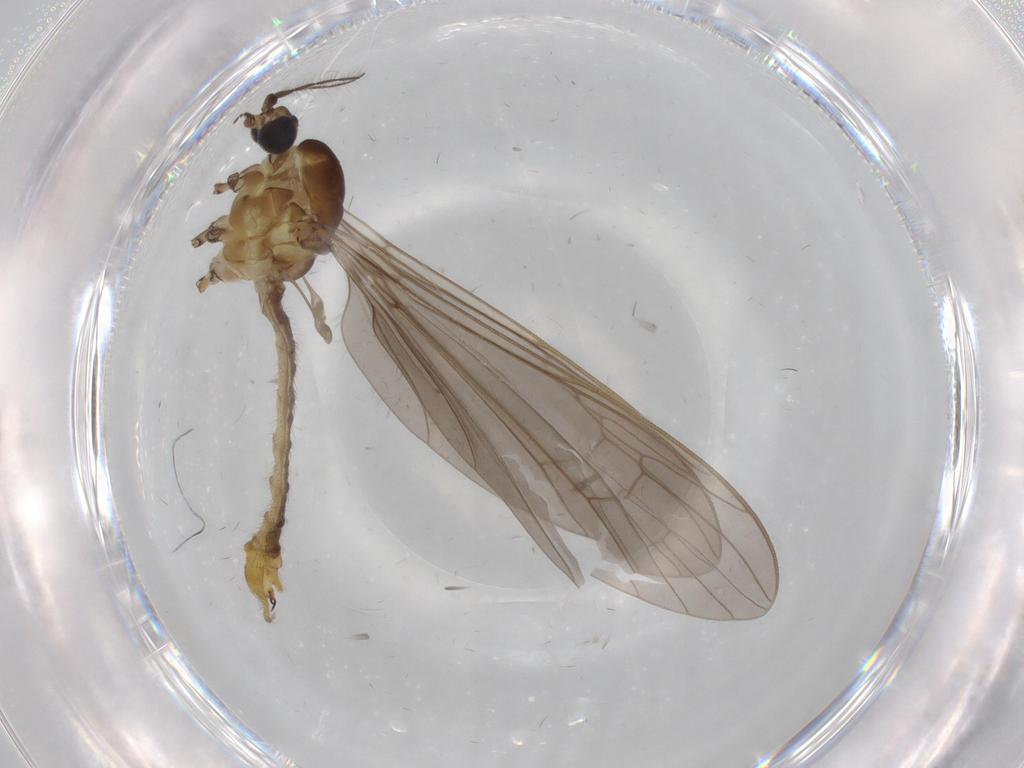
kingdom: Animalia
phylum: Arthropoda
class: Insecta
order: Diptera
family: Limoniidae
